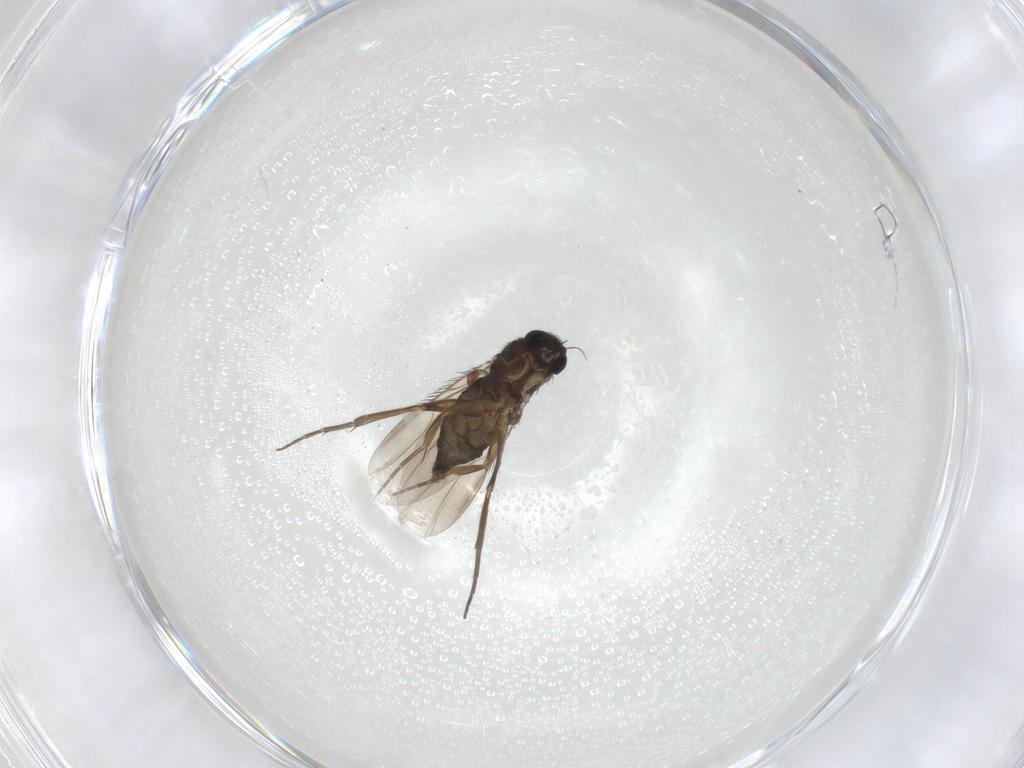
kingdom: Animalia
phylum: Arthropoda
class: Insecta
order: Diptera
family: Phoridae
